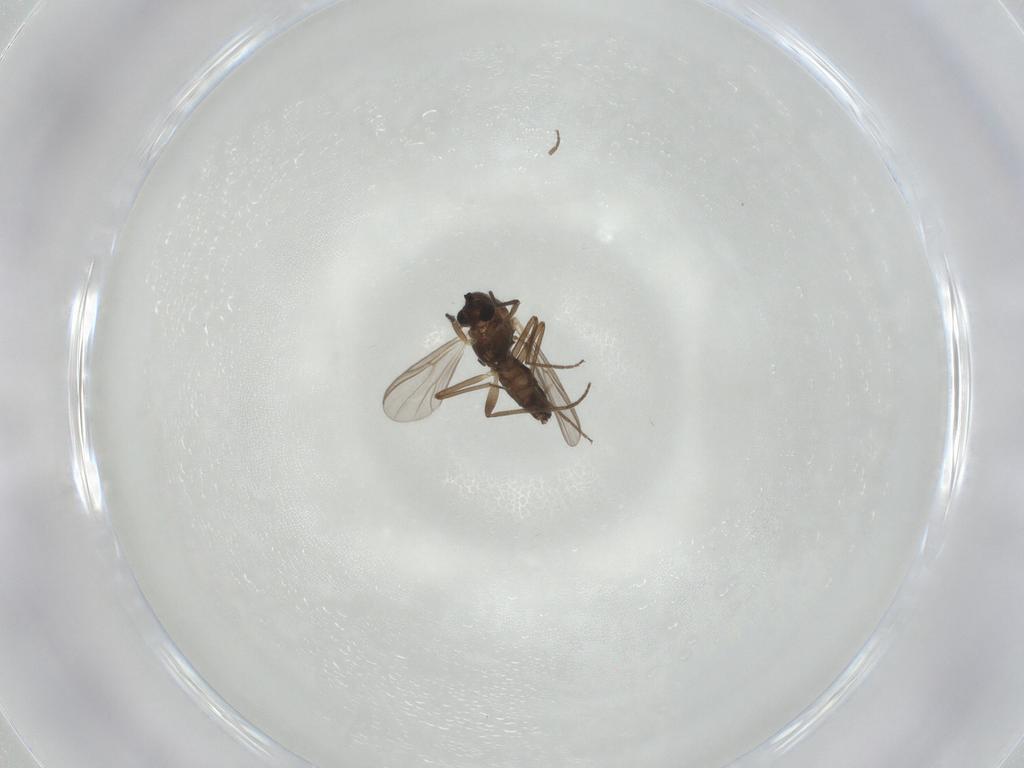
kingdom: Animalia
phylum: Arthropoda
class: Insecta
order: Diptera
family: Chironomidae
